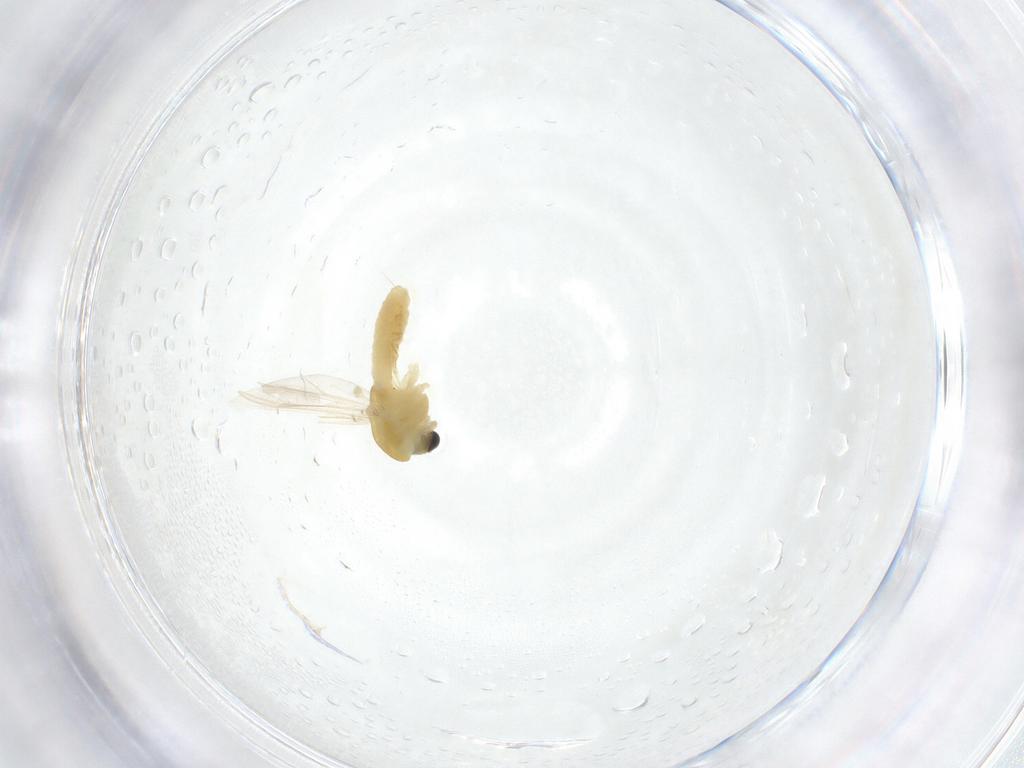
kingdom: Animalia
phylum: Arthropoda
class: Insecta
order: Diptera
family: Chironomidae
